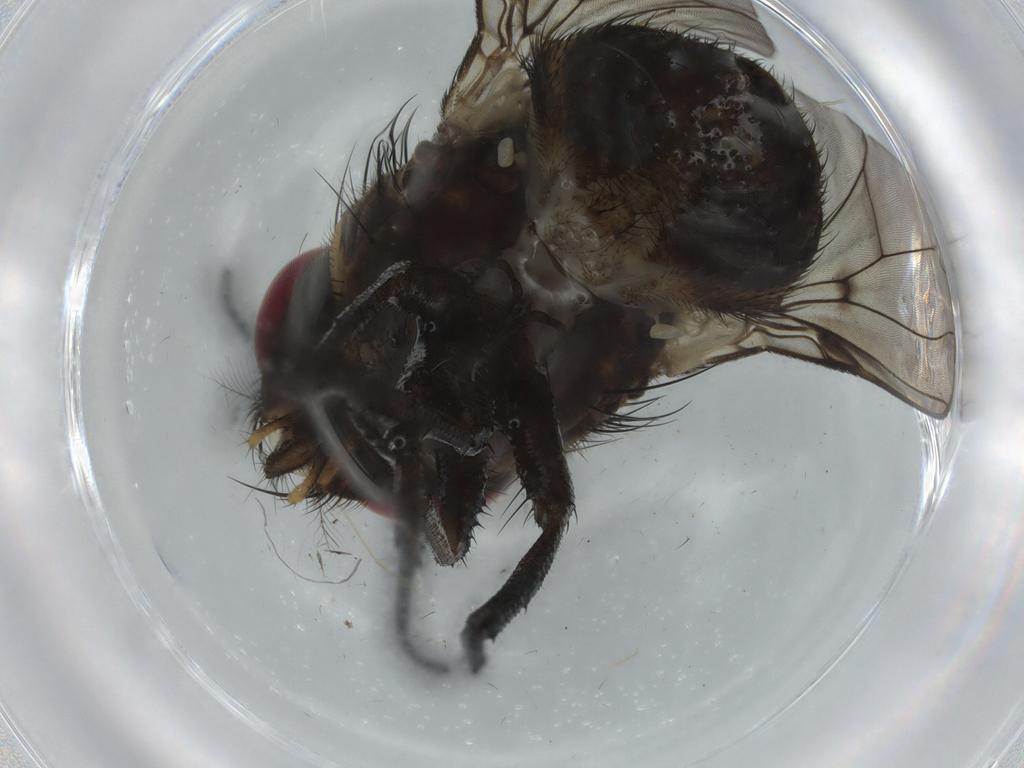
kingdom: Animalia
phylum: Arthropoda
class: Insecta
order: Diptera
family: Muscidae
